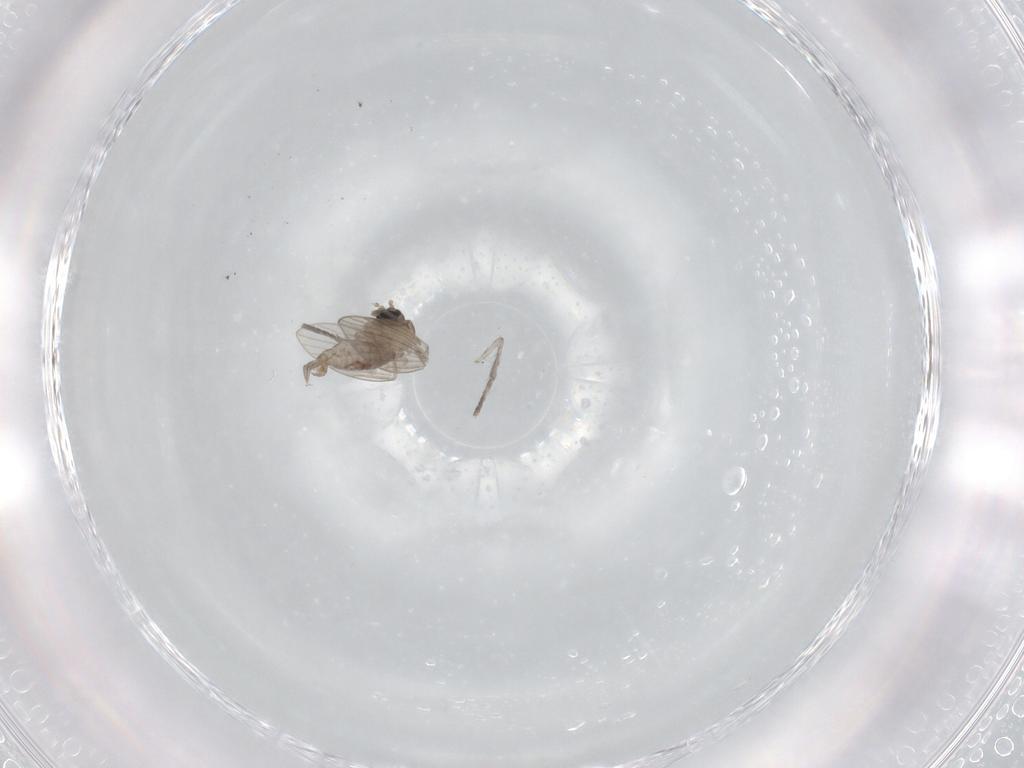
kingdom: Animalia
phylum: Arthropoda
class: Insecta
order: Diptera
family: Psychodidae
